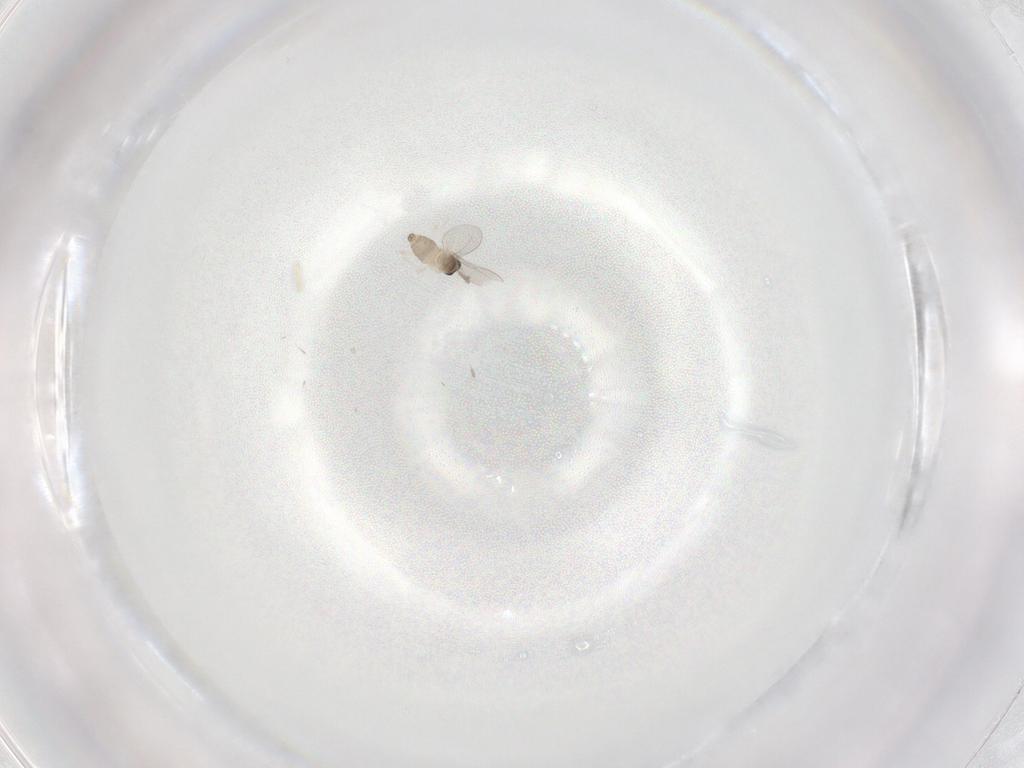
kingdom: Animalia
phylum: Arthropoda
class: Insecta
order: Diptera
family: Cecidomyiidae
